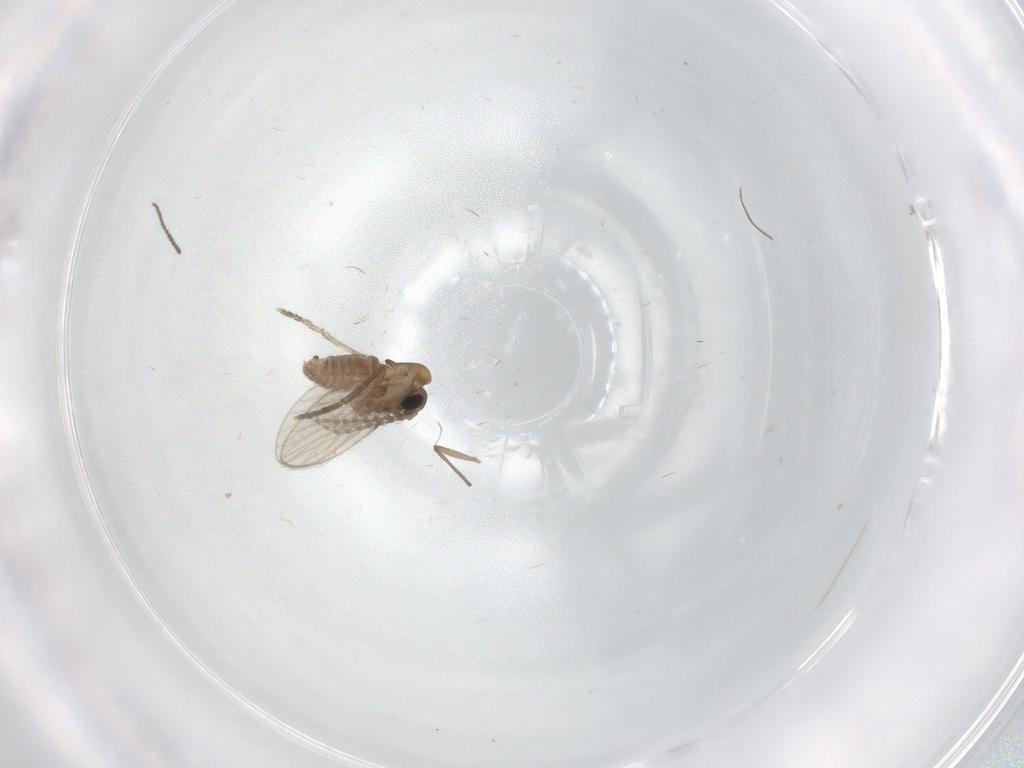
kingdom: Animalia
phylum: Arthropoda
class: Insecta
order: Diptera
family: Chironomidae
